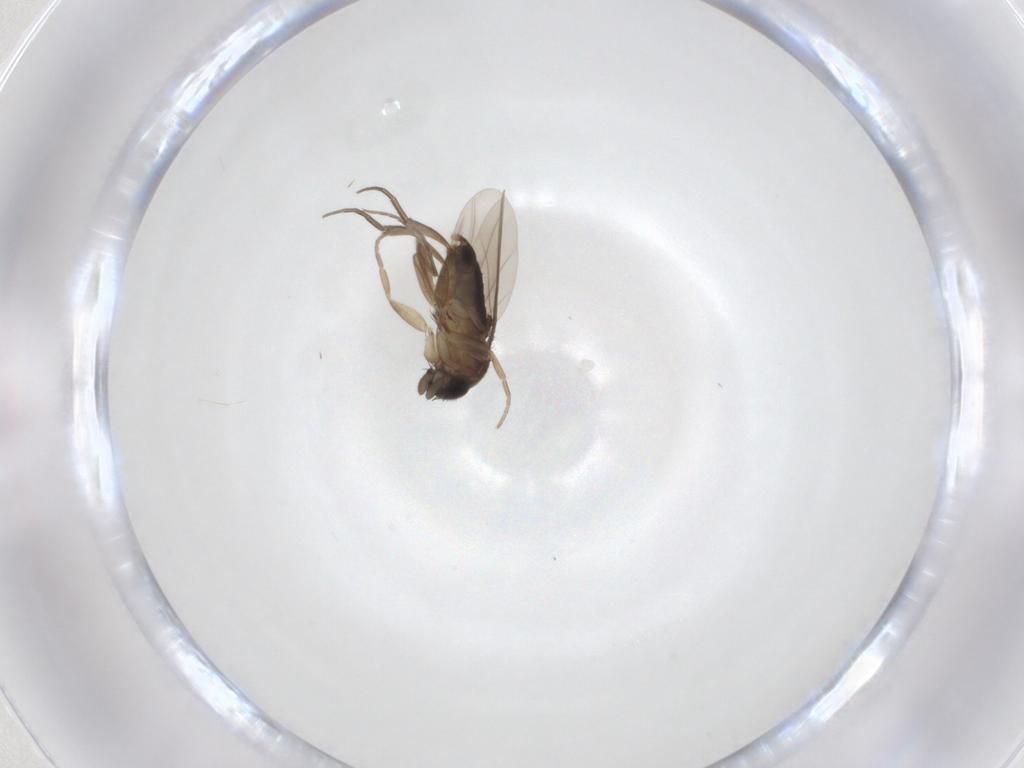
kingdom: Animalia
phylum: Arthropoda
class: Insecta
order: Diptera
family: Phoridae
